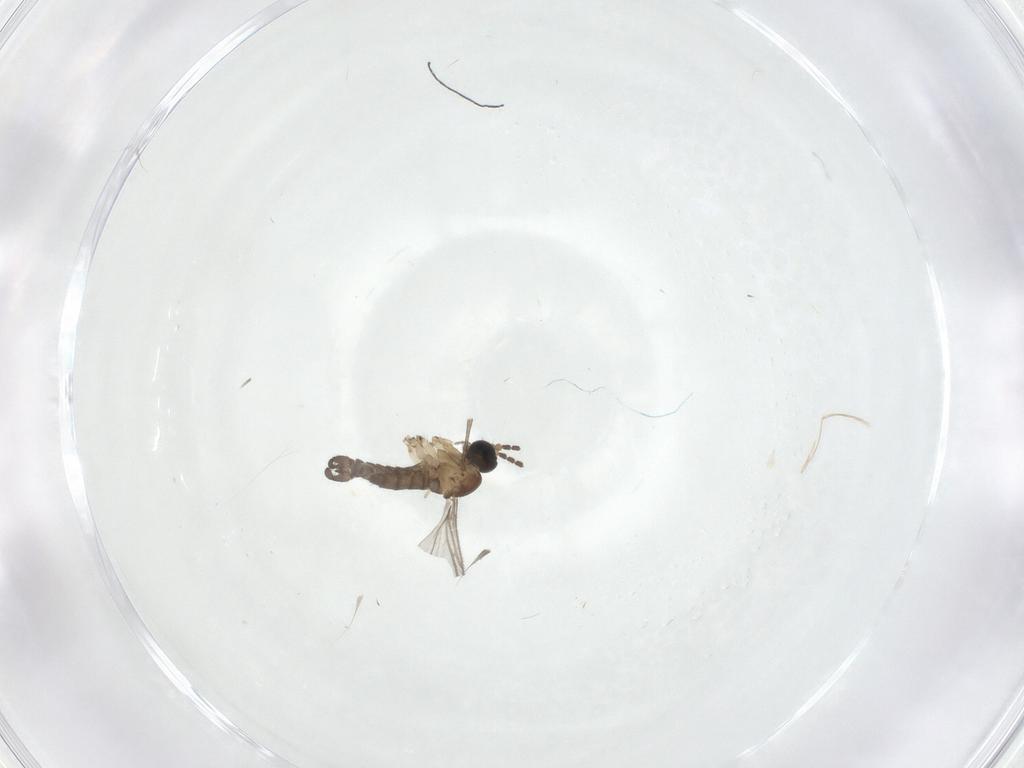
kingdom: Animalia
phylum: Arthropoda
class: Insecta
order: Diptera
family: Sciaridae
